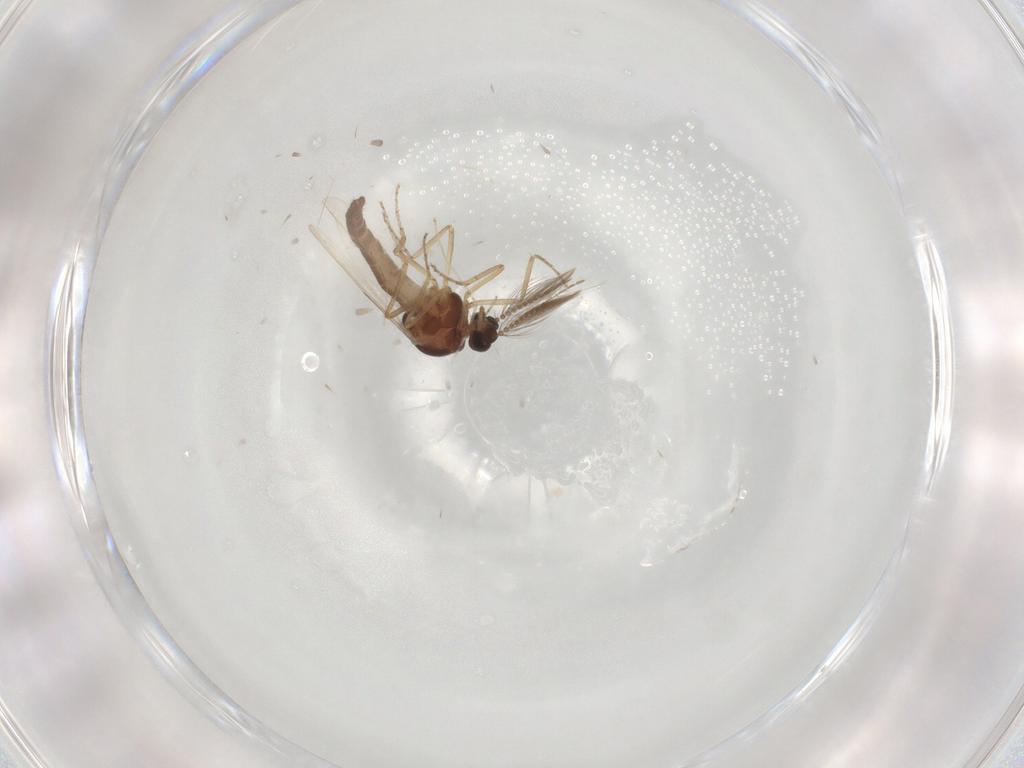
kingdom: Animalia
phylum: Arthropoda
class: Insecta
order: Diptera
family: Ceratopogonidae
